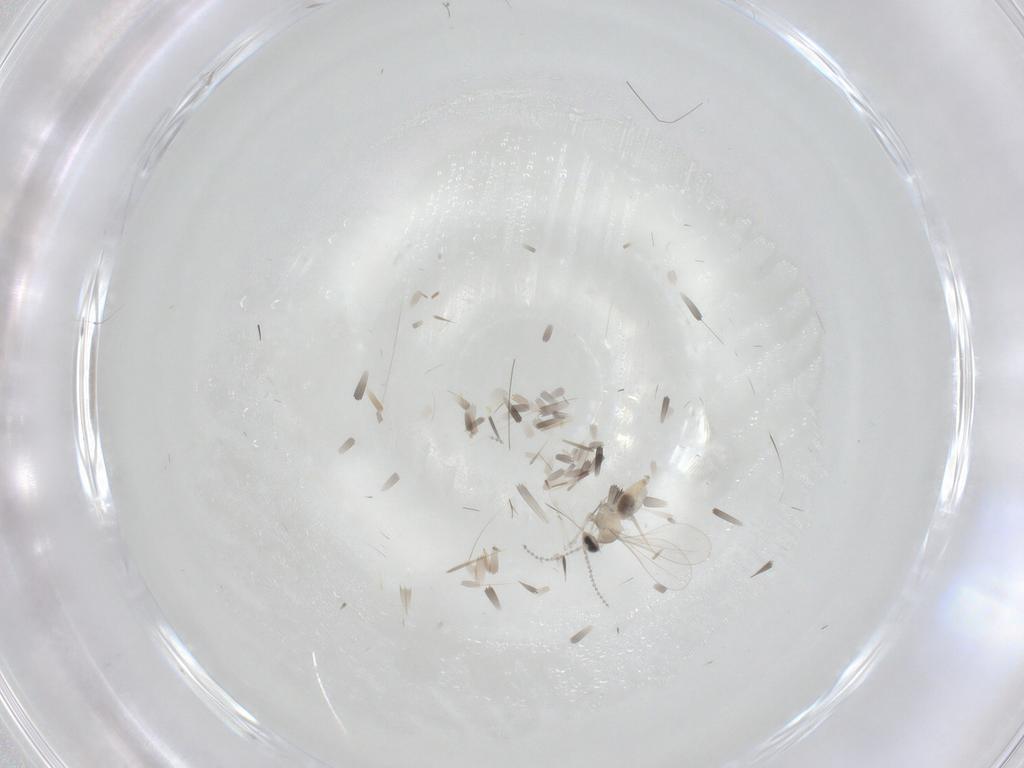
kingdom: Animalia
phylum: Arthropoda
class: Insecta
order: Diptera
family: Cecidomyiidae
